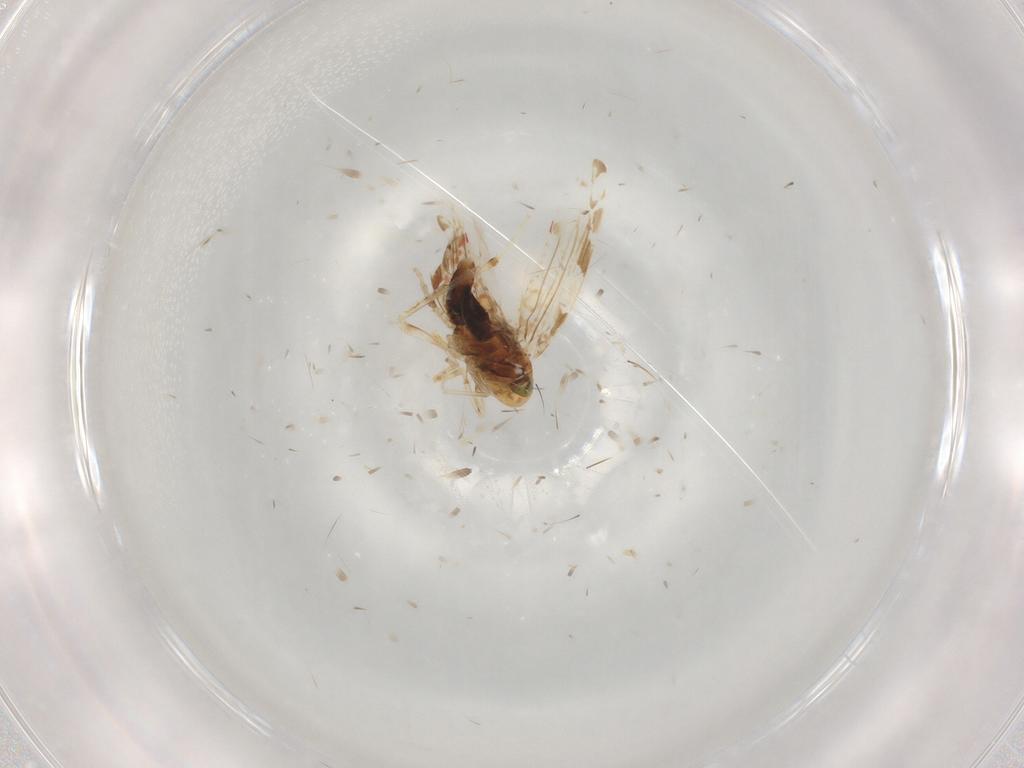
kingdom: Animalia
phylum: Arthropoda
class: Insecta
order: Hemiptera
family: Cicadellidae
